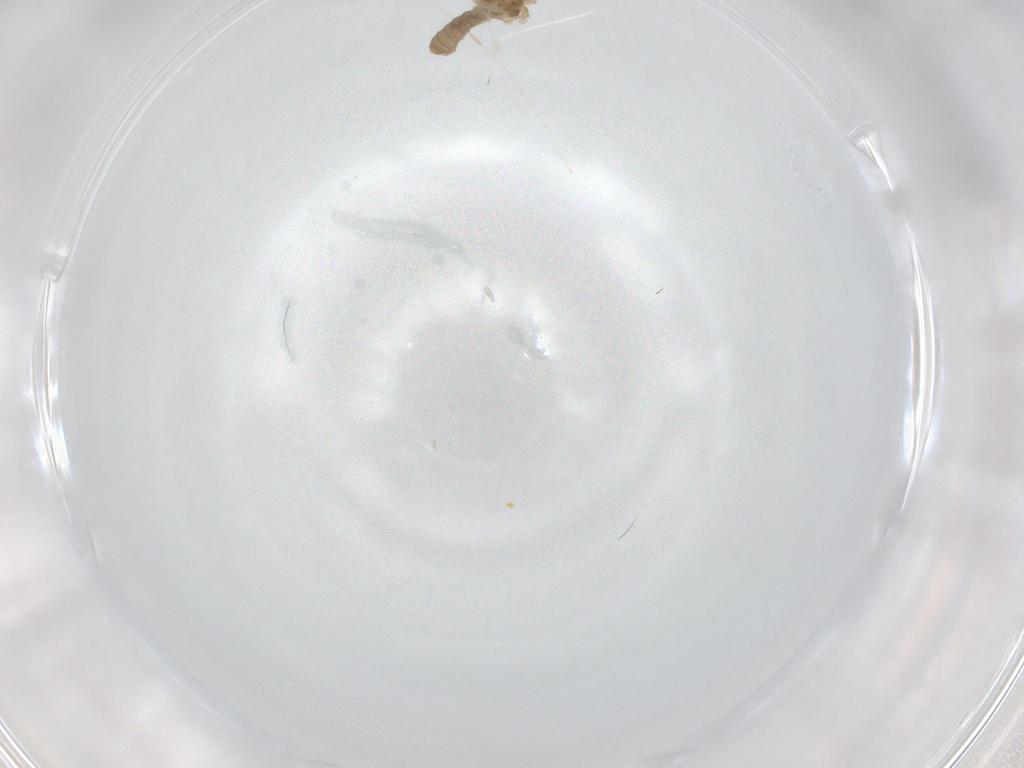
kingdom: Animalia
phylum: Arthropoda
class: Insecta
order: Diptera
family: Cecidomyiidae
